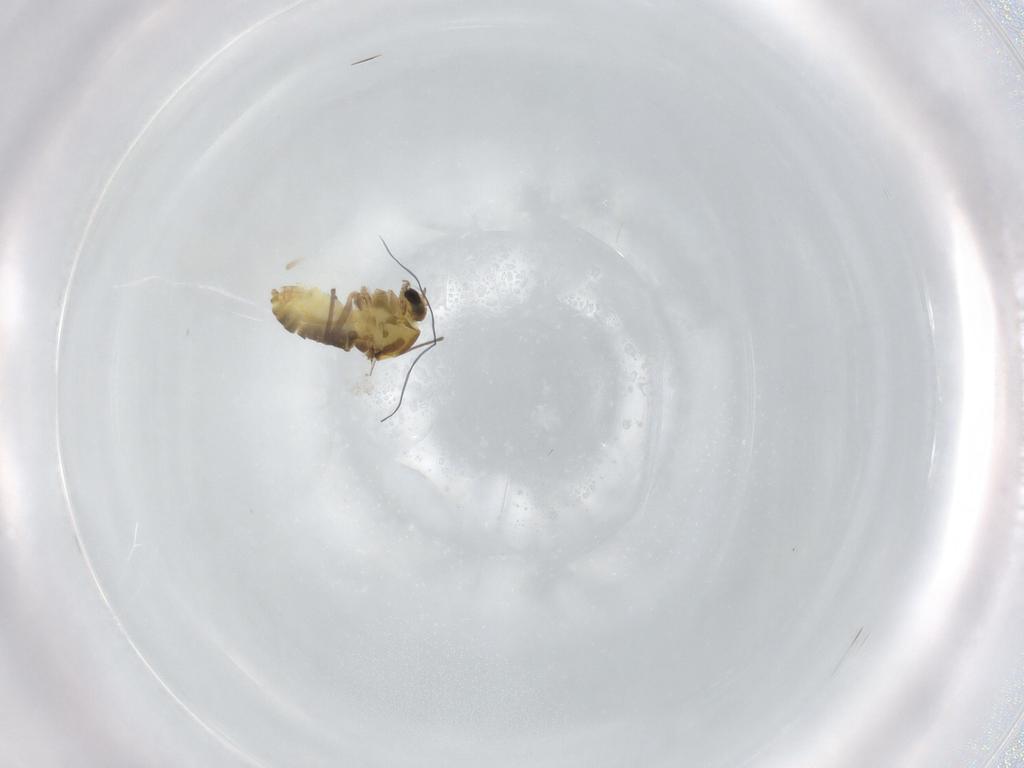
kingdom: Animalia
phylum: Arthropoda
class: Insecta
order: Diptera
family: Chironomidae
